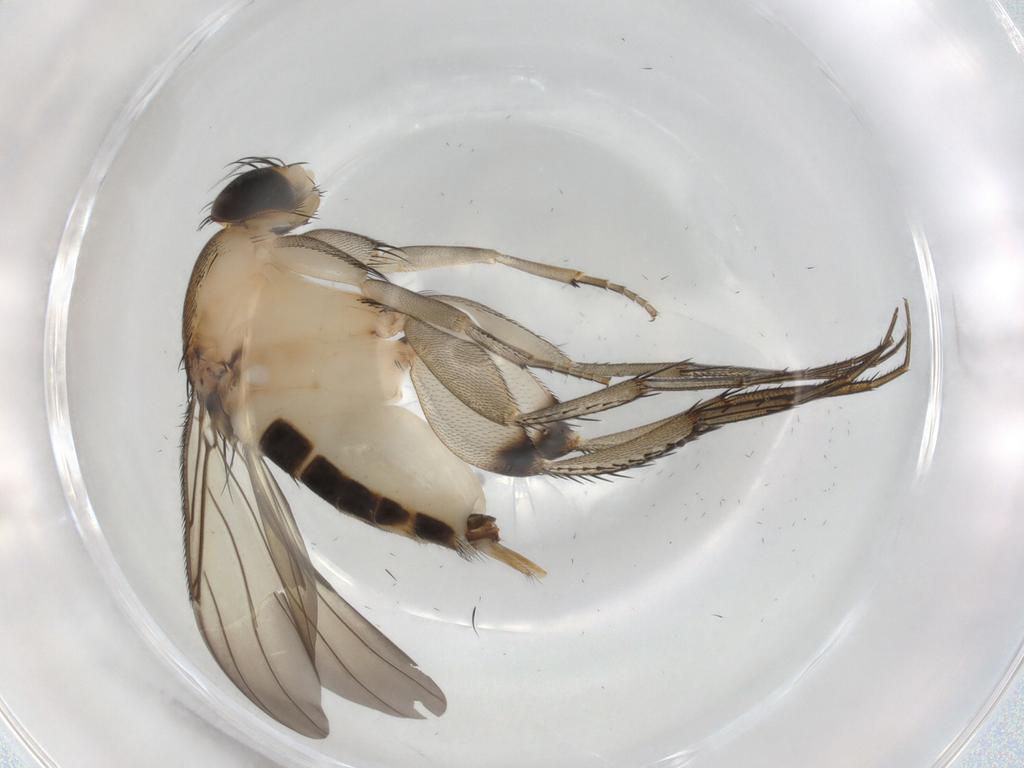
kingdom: Animalia
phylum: Arthropoda
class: Insecta
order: Diptera
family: Phoridae
